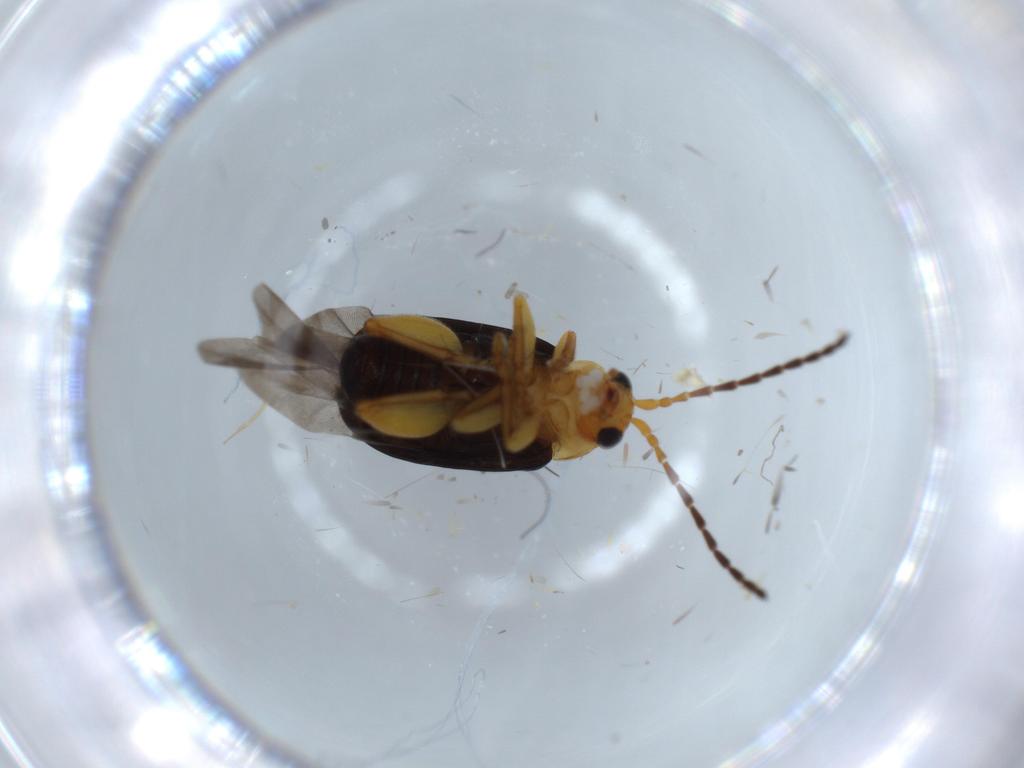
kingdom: Animalia
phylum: Arthropoda
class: Insecta
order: Coleoptera
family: Chrysomelidae
